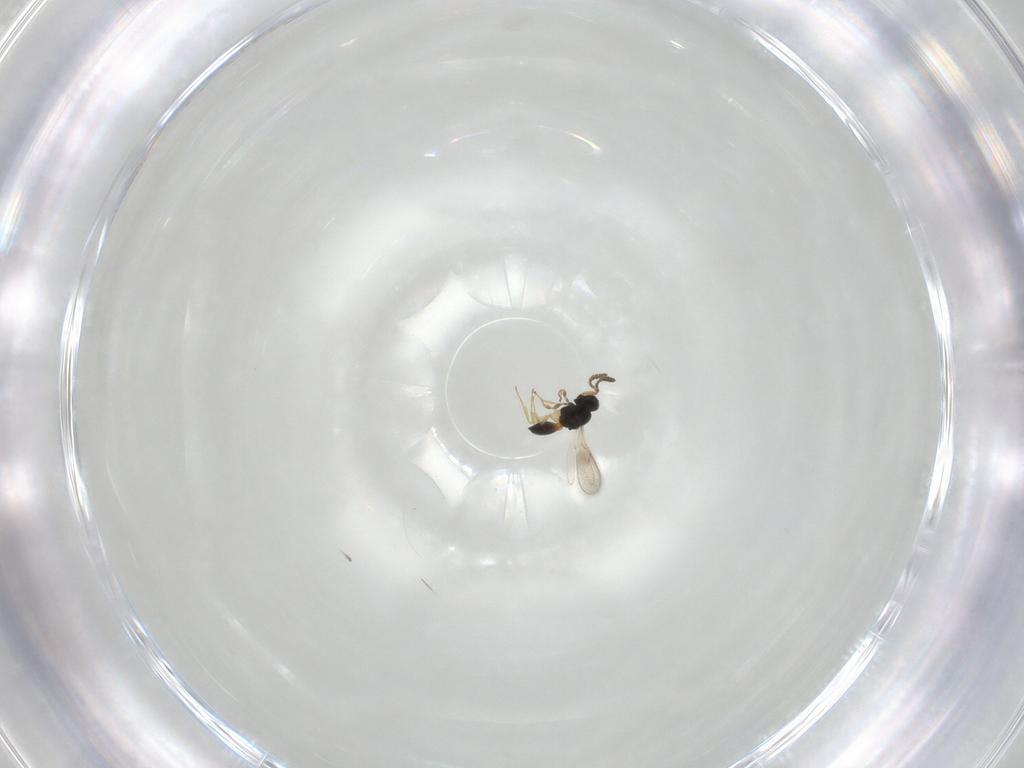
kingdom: Animalia
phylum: Arthropoda
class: Insecta
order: Hymenoptera
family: Scelionidae
